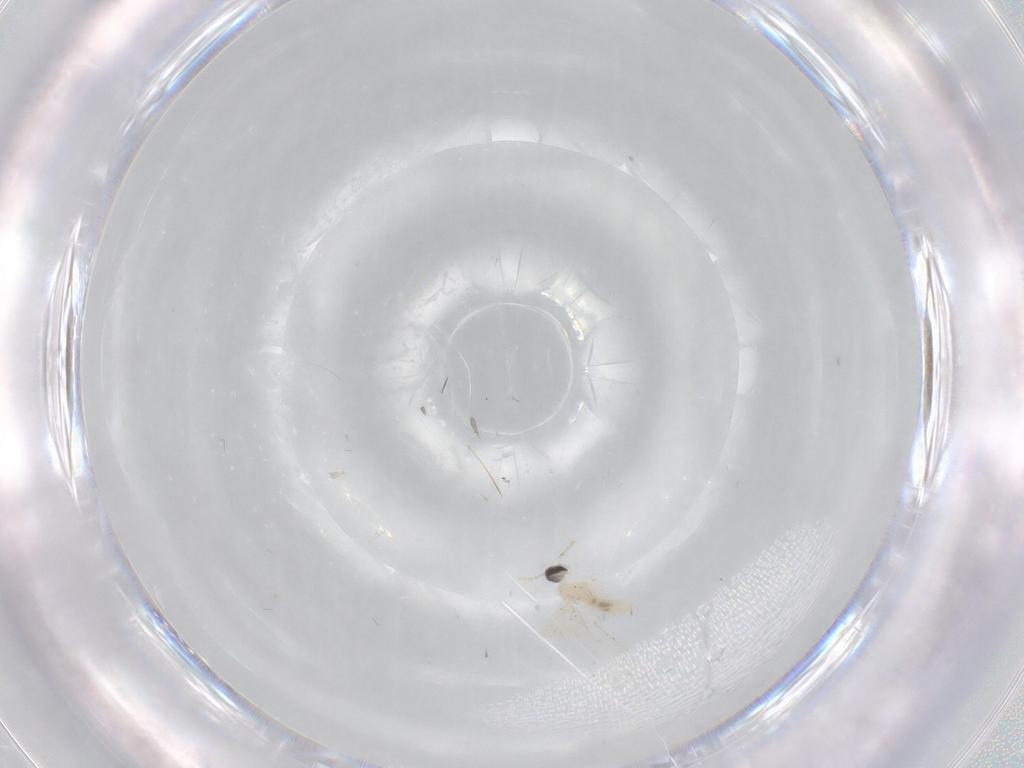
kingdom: Animalia
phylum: Arthropoda
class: Insecta
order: Diptera
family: Cecidomyiidae
